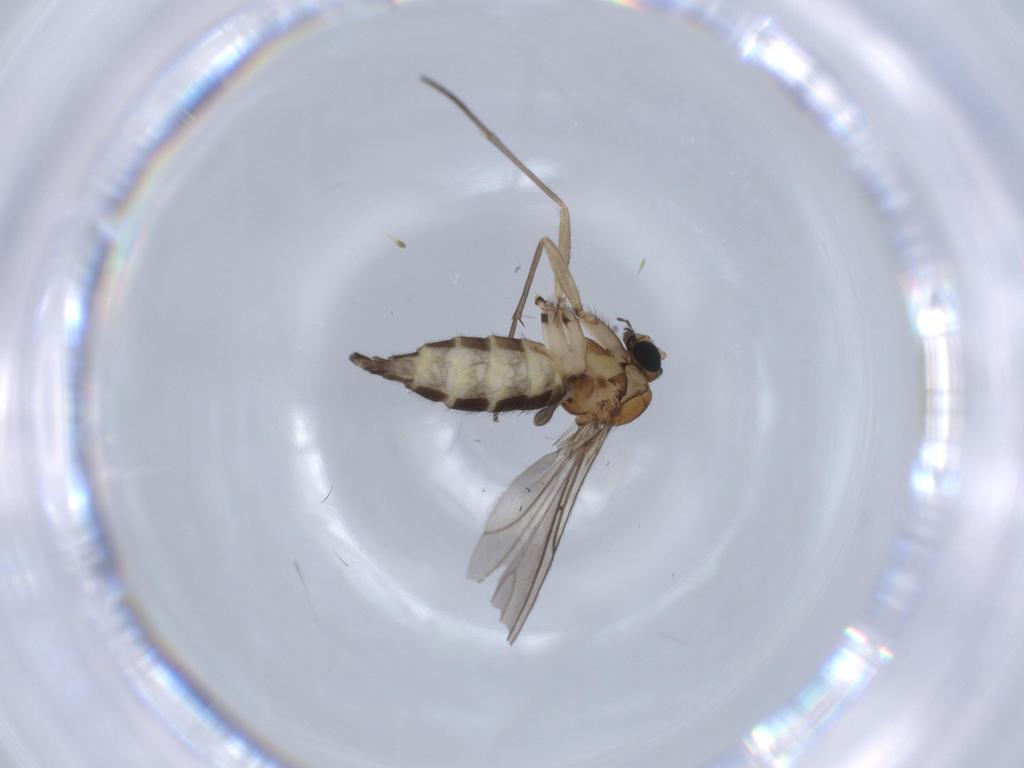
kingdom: Animalia
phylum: Arthropoda
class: Insecta
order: Diptera
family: Sciaridae
